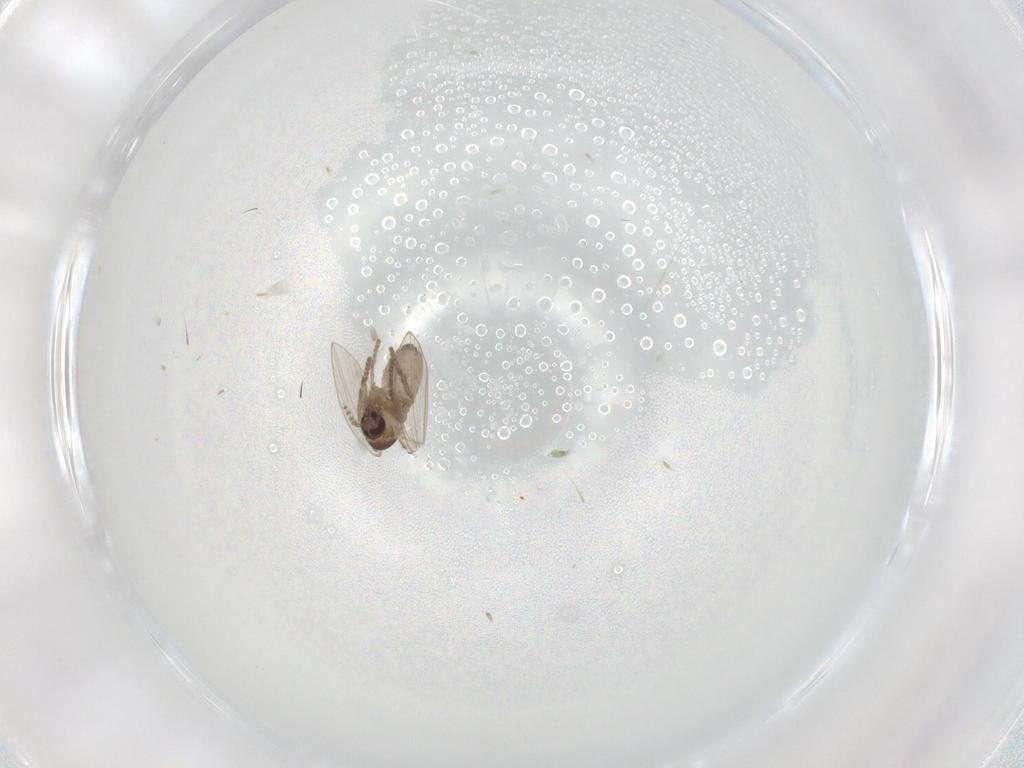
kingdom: Animalia
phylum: Arthropoda
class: Insecta
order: Diptera
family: Psychodidae
